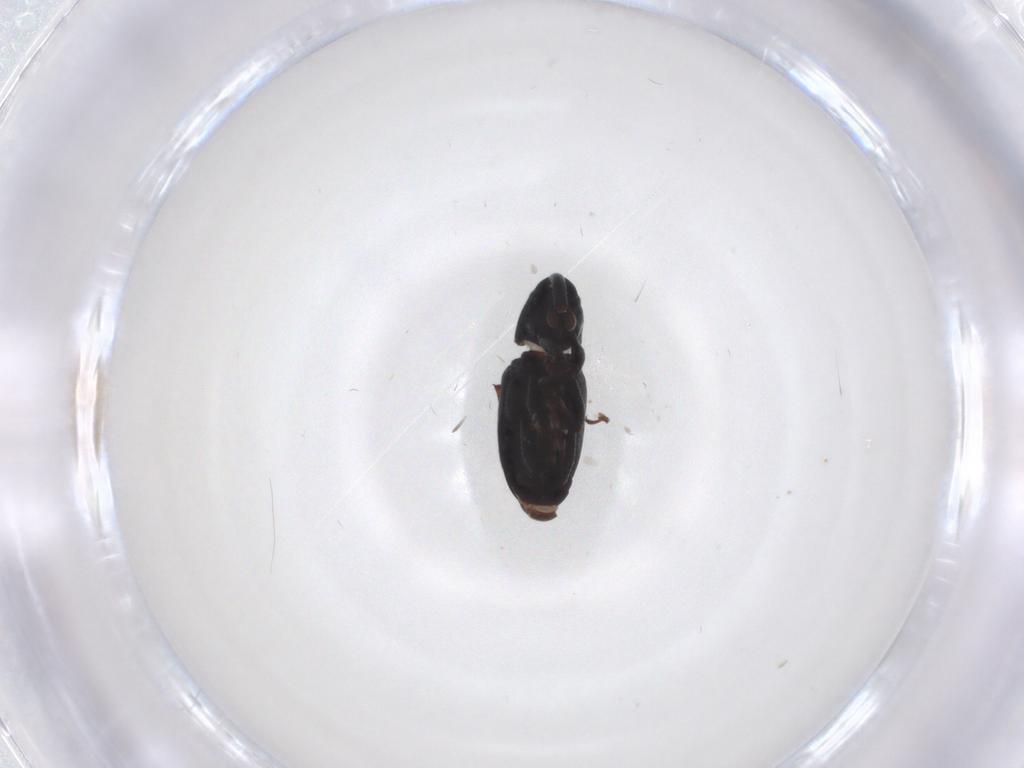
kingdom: Animalia
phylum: Arthropoda
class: Insecta
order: Coleoptera
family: Curculionidae
